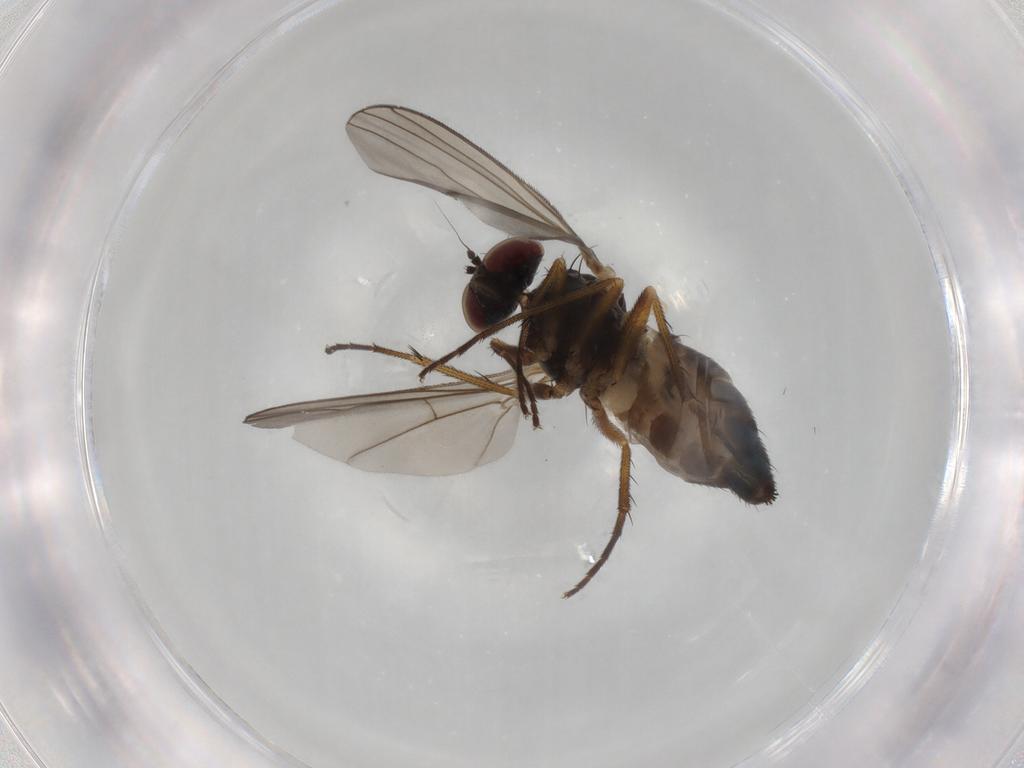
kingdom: Animalia
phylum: Arthropoda
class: Insecta
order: Diptera
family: Dolichopodidae
